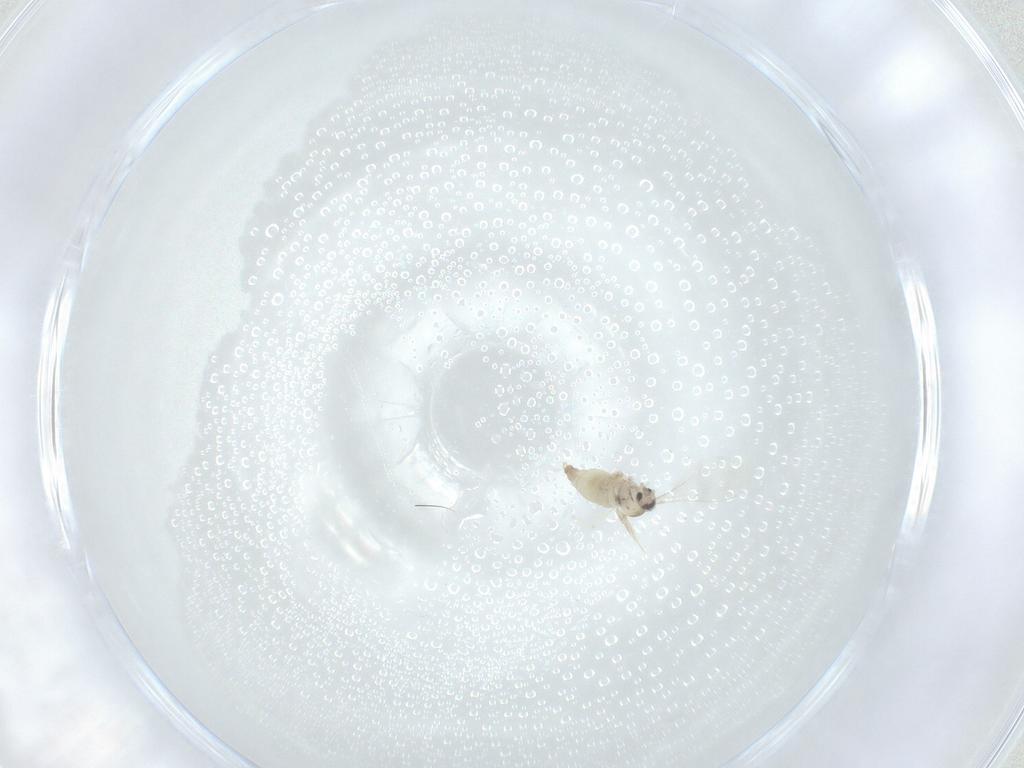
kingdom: Animalia
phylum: Arthropoda
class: Insecta
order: Diptera
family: Cecidomyiidae
